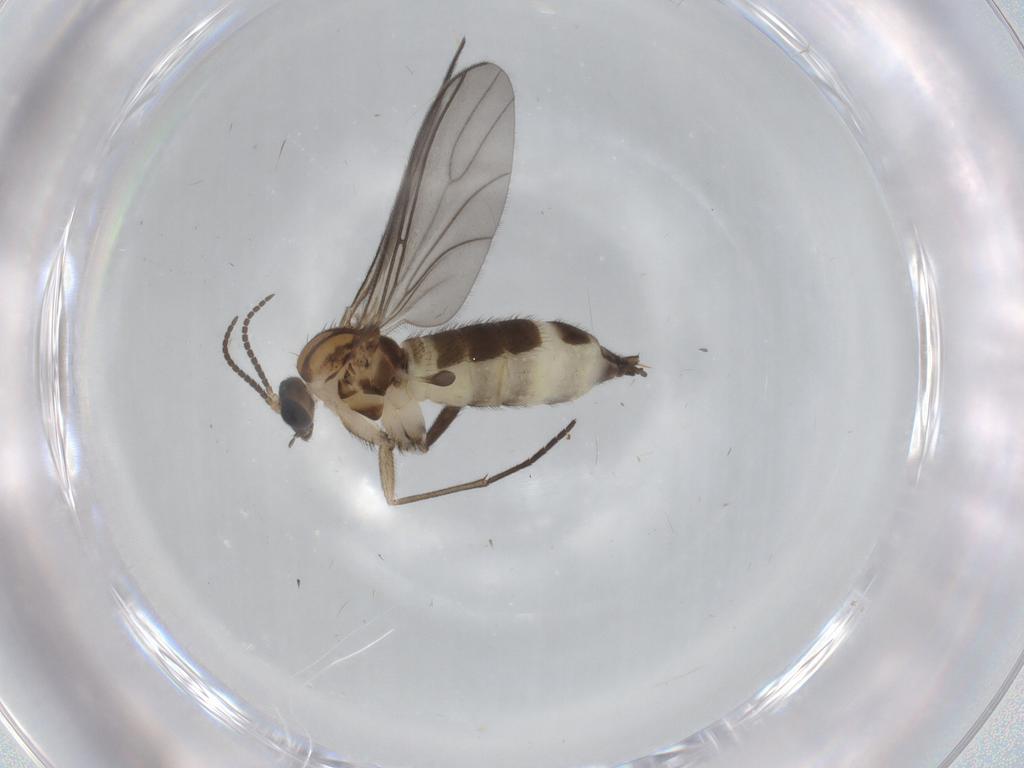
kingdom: Animalia
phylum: Arthropoda
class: Insecta
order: Diptera
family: Sciaridae
